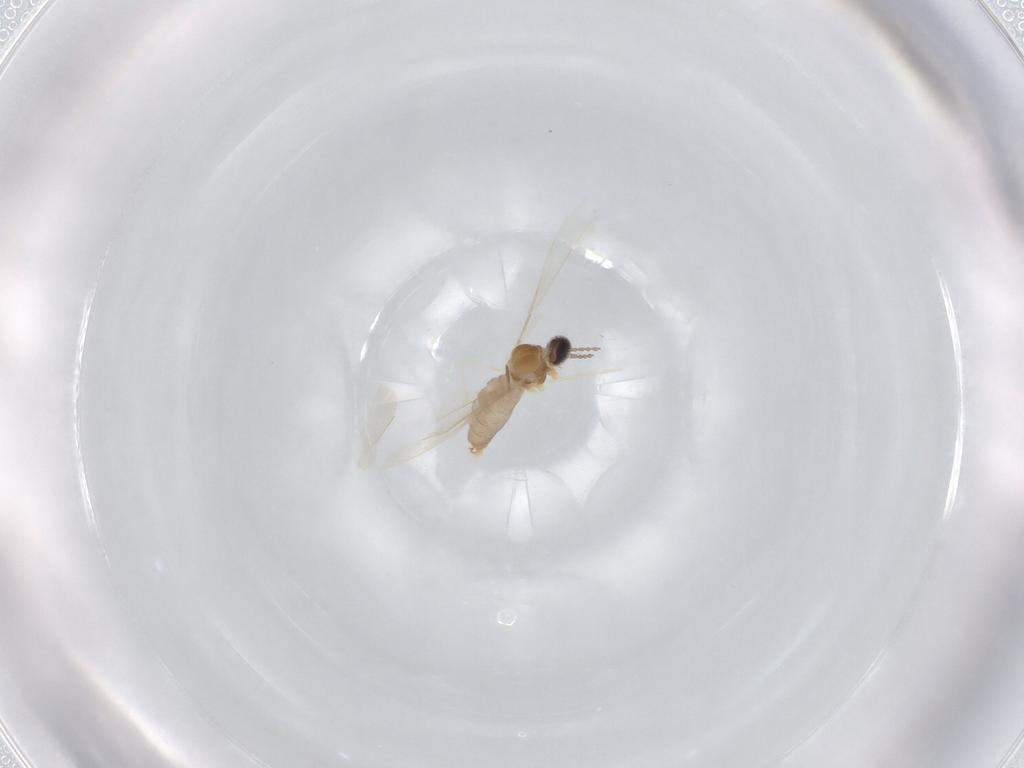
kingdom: Animalia
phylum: Arthropoda
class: Insecta
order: Diptera
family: Cecidomyiidae
